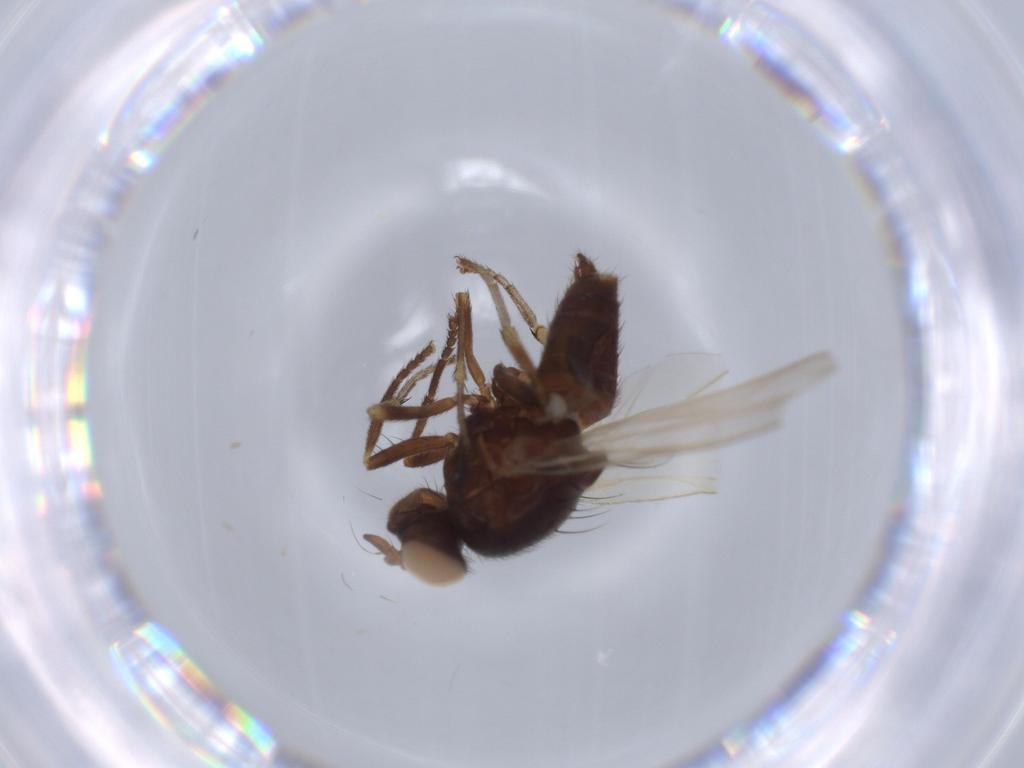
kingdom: Animalia
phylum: Arthropoda
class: Insecta
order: Diptera
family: Lauxaniidae
